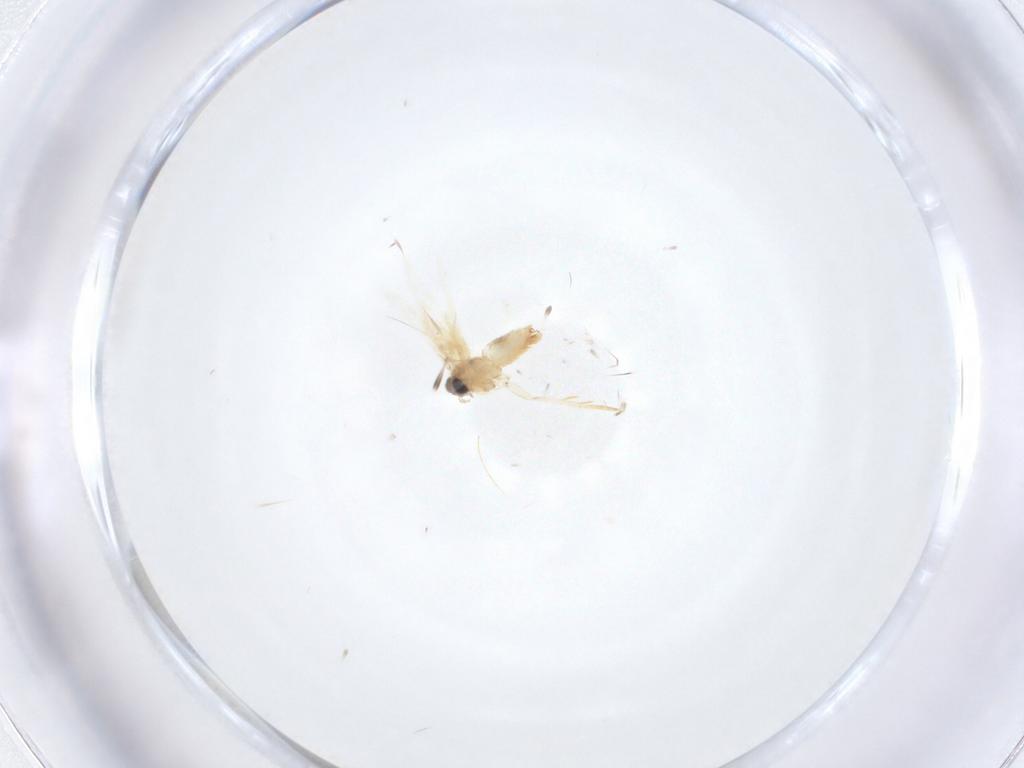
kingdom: Animalia
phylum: Arthropoda
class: Insecta
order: Lepidoptera
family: Crambidae
